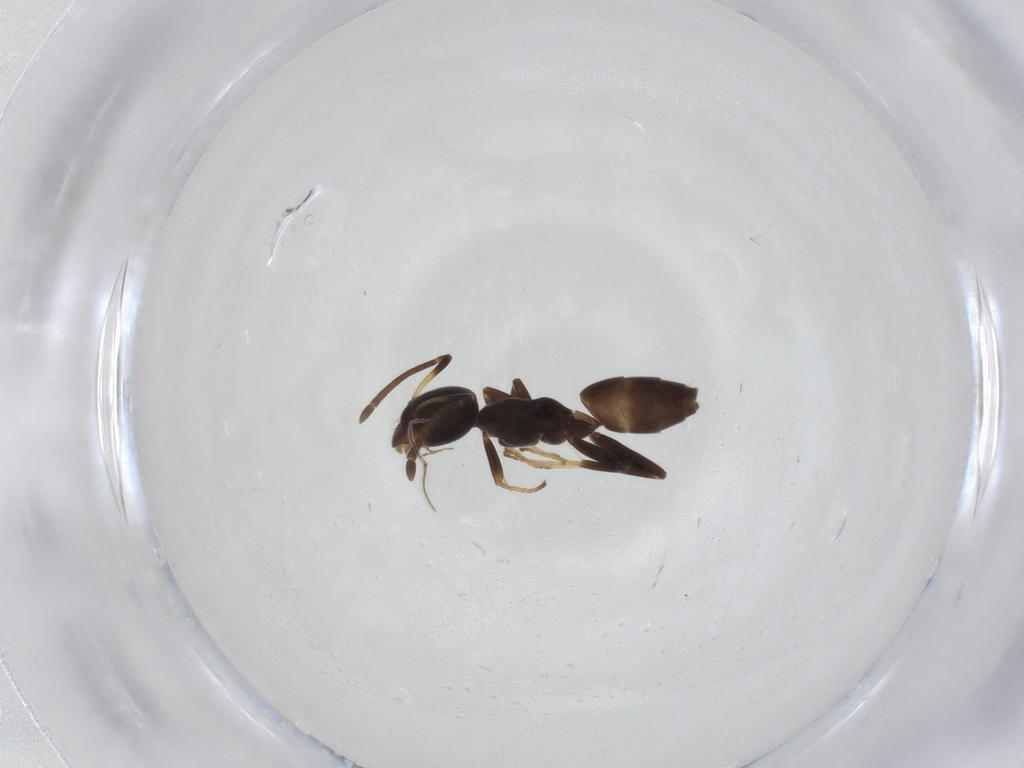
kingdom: Animalia
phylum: Arthropoda
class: Insecta
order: Hymenoptera
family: Formicidae
